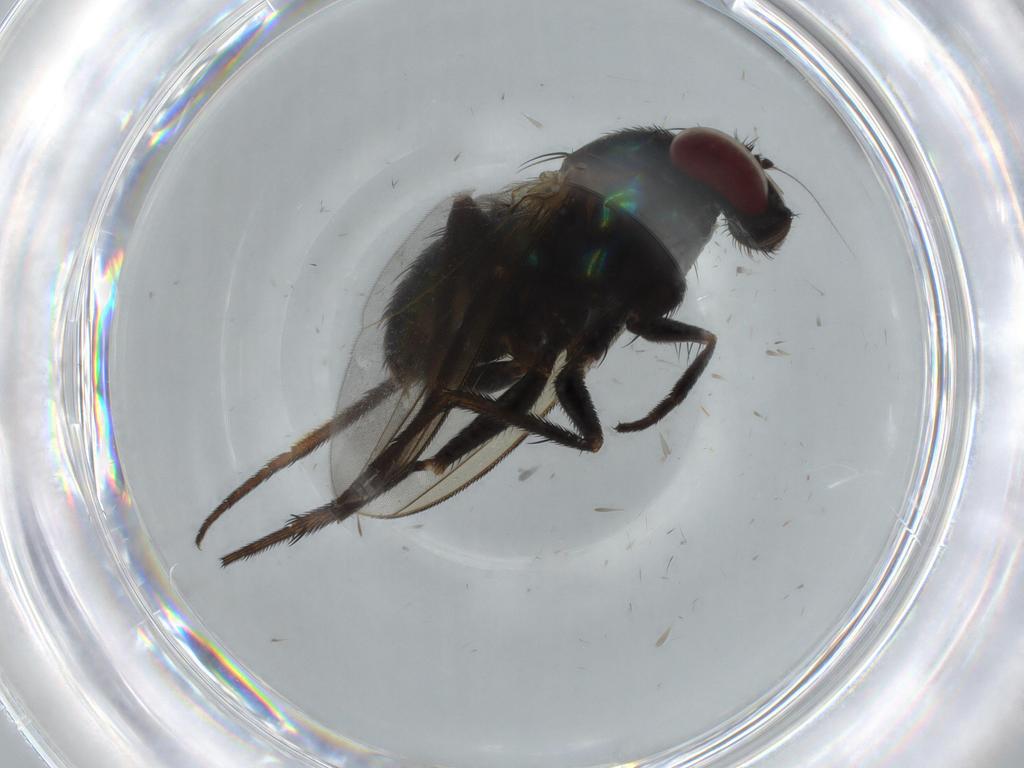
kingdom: Animalia
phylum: Arthropoda
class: Insecta
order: Diptera
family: Dolichopodidae
